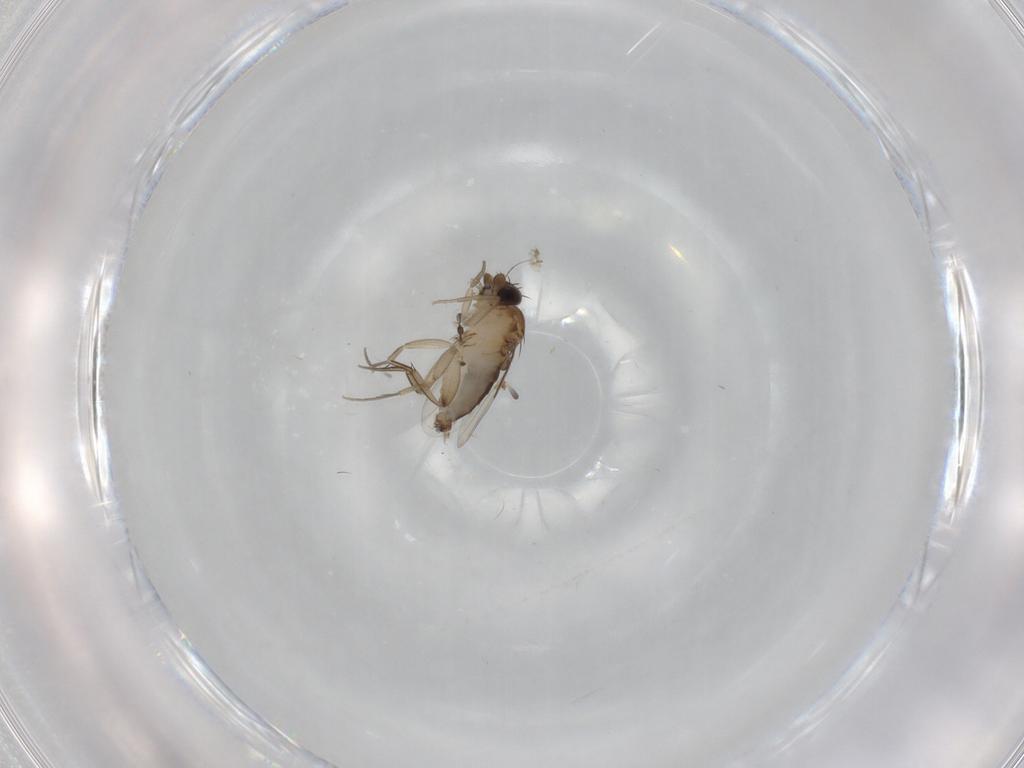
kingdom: Animalia
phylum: Arthropoda
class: Insecta
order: Diptera
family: Phoridae
